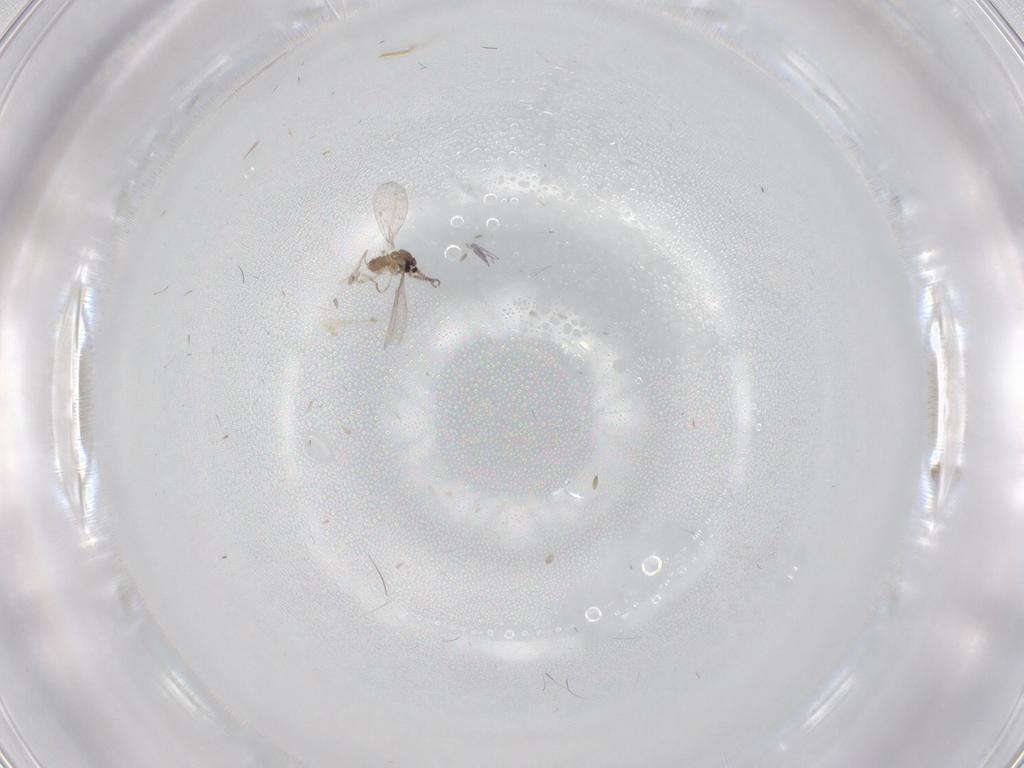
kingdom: Animalia
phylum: Arthropoda
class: Insecta
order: Diptera
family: Phoridae
